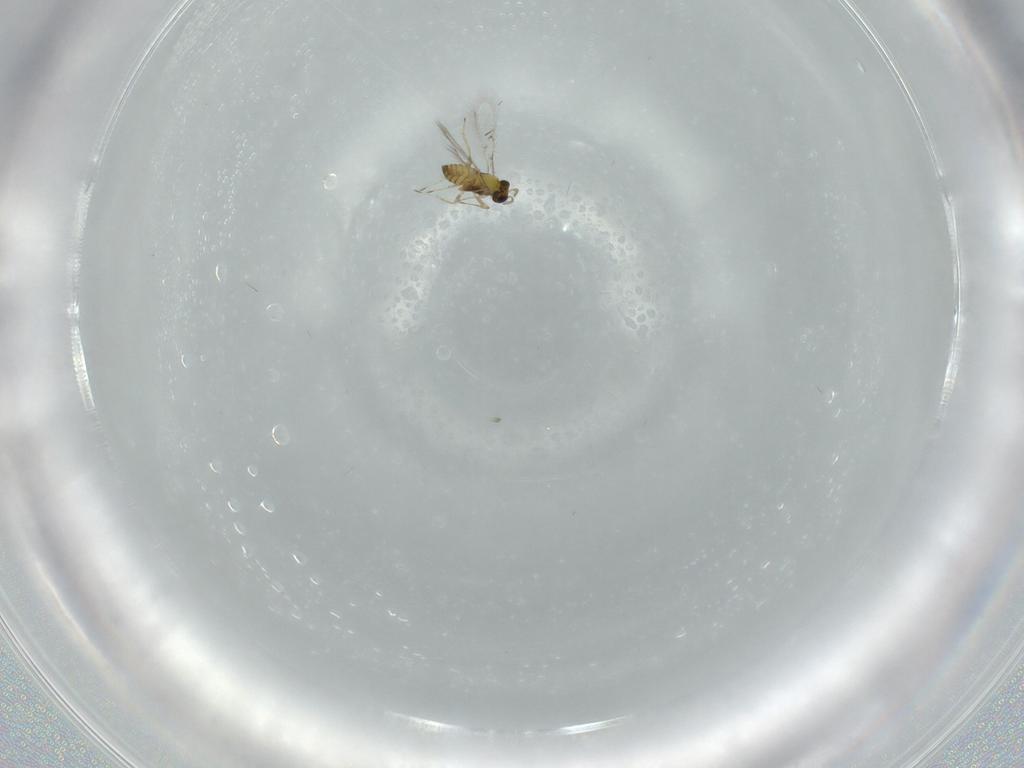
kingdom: Animalia
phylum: Arthropoda
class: Insecta
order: Hymenoptera
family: Trichogrammatidae
